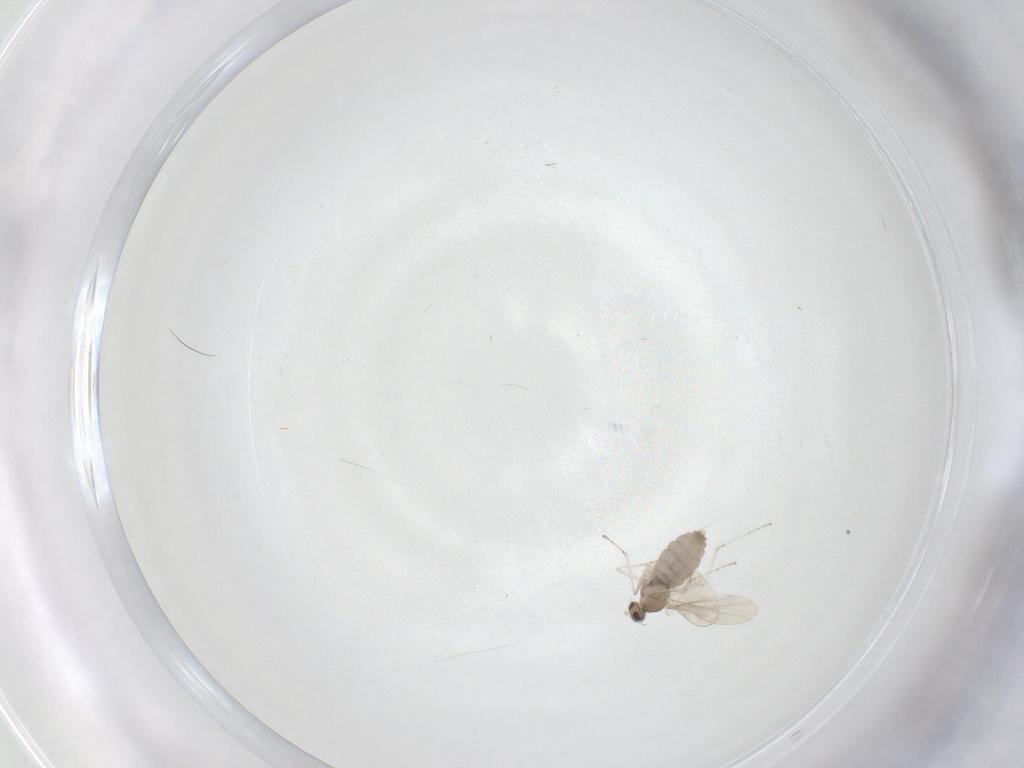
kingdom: Animalia
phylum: Arthropoda
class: Insecta
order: Diptera
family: Cecidomyiidae
